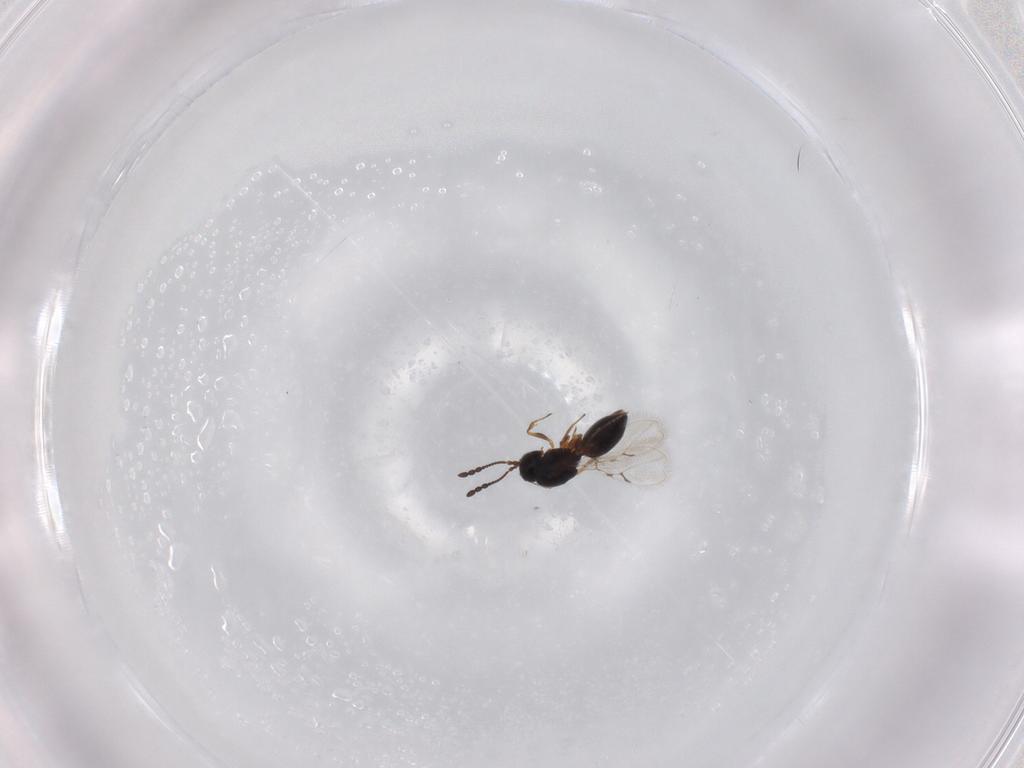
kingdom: Animalia
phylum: Arthropoda
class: Insecta
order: Hymenoptera
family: Figitidae
